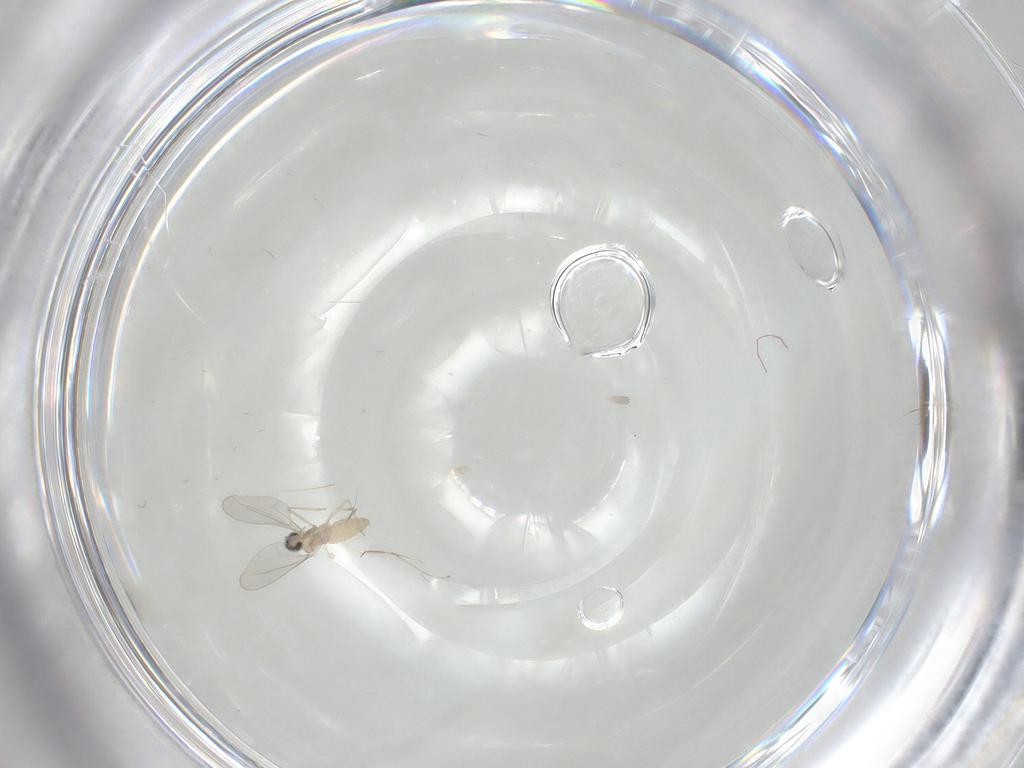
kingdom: Animalia
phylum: Arthropoda
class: Insecta
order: Diptera
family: Cecidomyiidae
